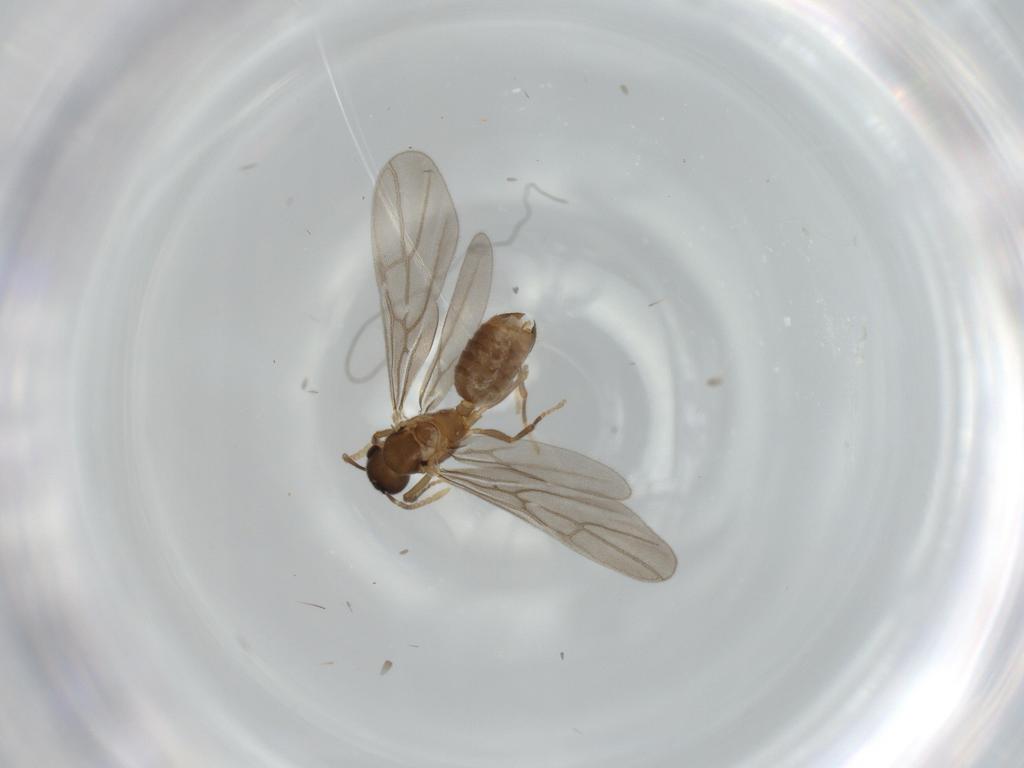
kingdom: Animalia
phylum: Arthropoda
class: Insecta
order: Hymenoptera
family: Formicidae
